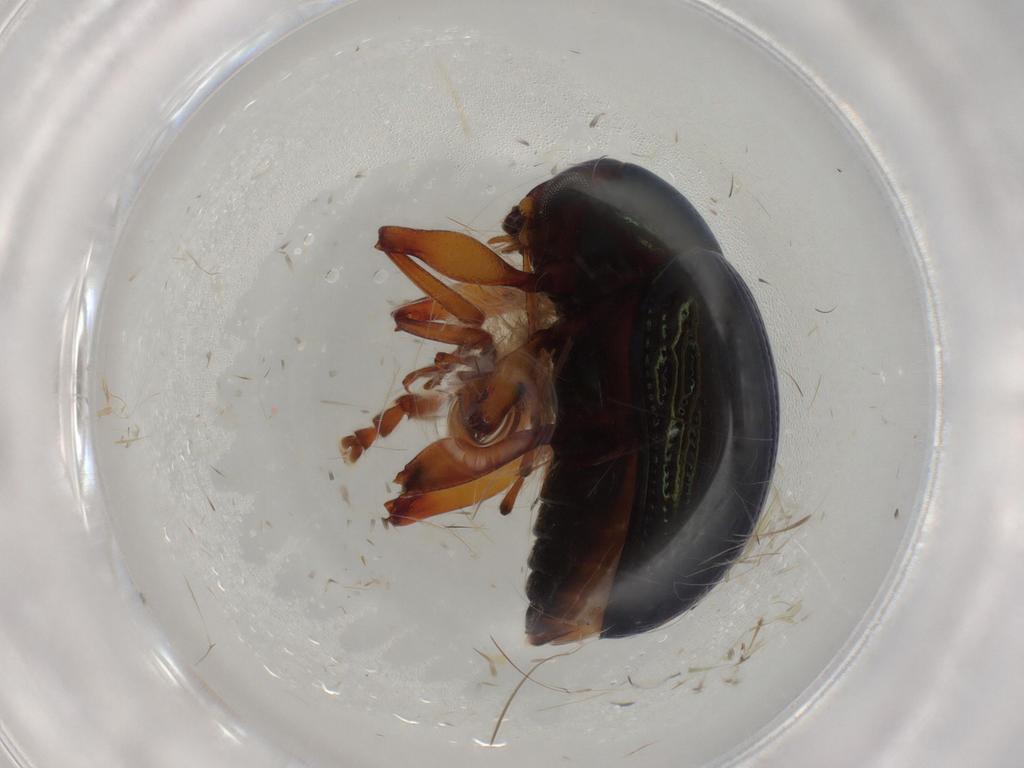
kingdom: Animalia
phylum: Arthropoda
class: Insecta
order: Coleoptera
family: Chrysomelidae
